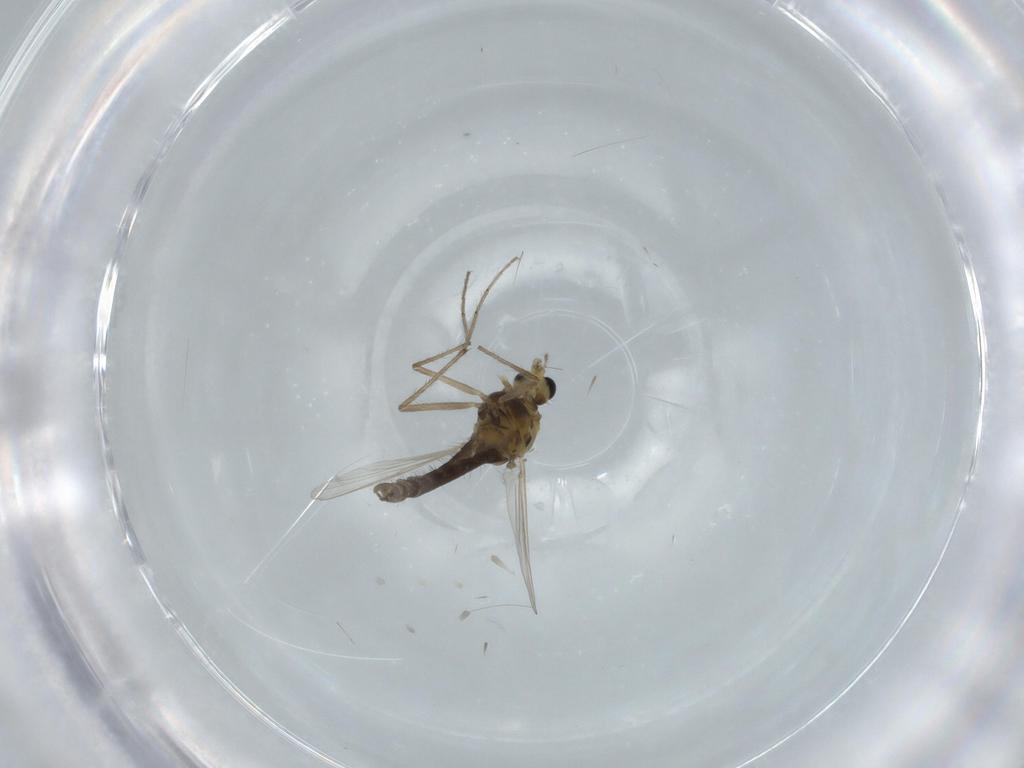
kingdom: Animalia
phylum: Arthropoda
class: Insecta
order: Diptera
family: Chironomidae
